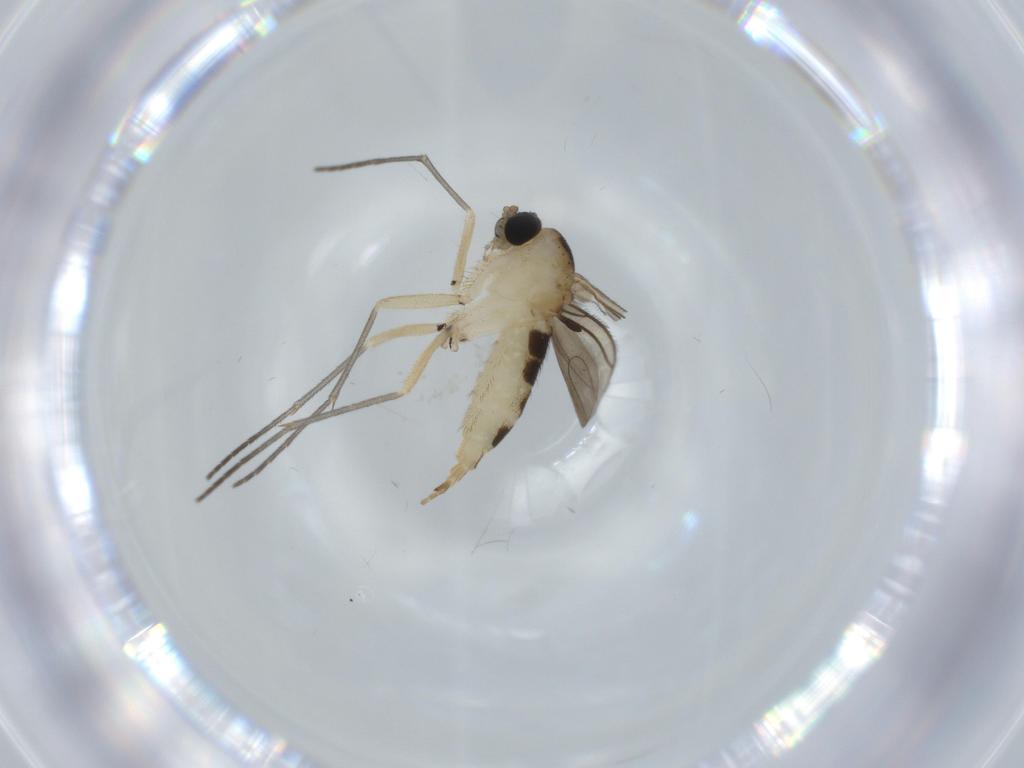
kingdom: Animalia
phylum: Arthropoda
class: Insecta
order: Diptera
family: Sciaridae
